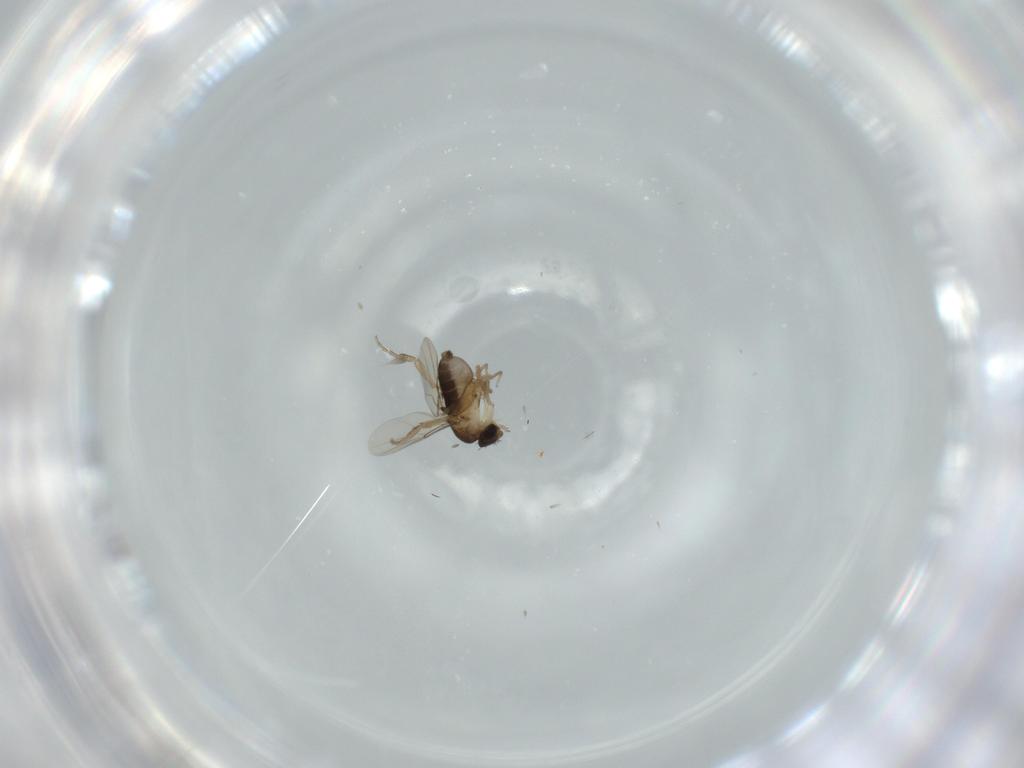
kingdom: Animalia
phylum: Arthropoda
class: Insecta
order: Diptera
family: Phoridae
